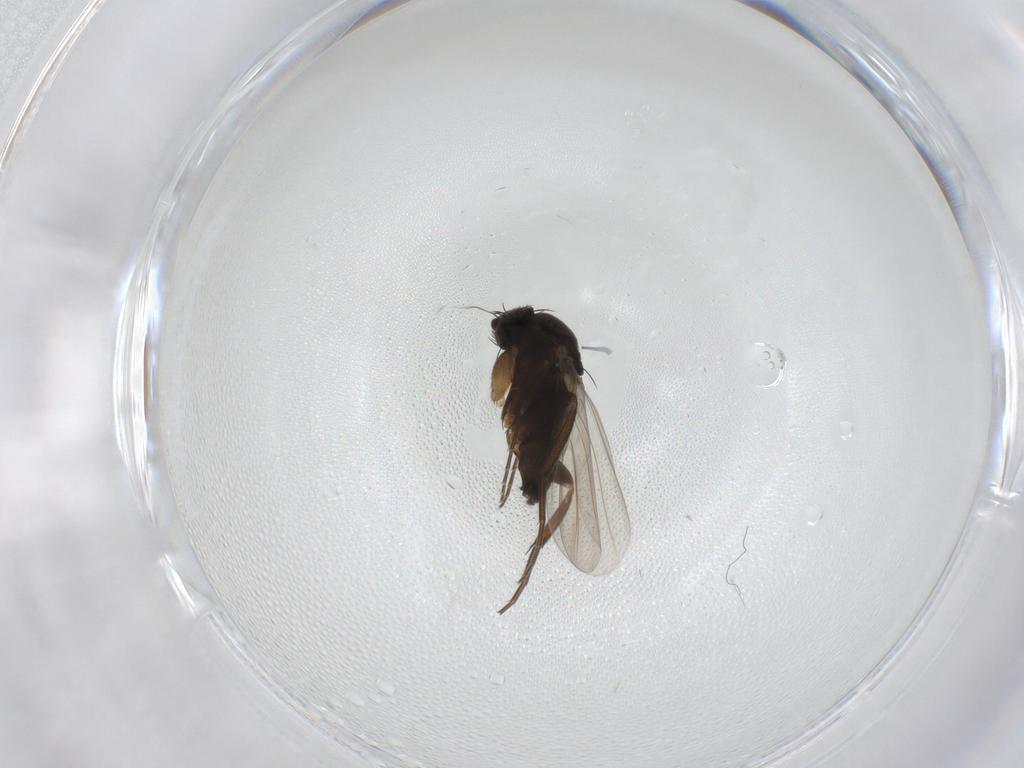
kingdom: Animalia
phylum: Arthropoda
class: Insecta
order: Diptera
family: Phoridae
